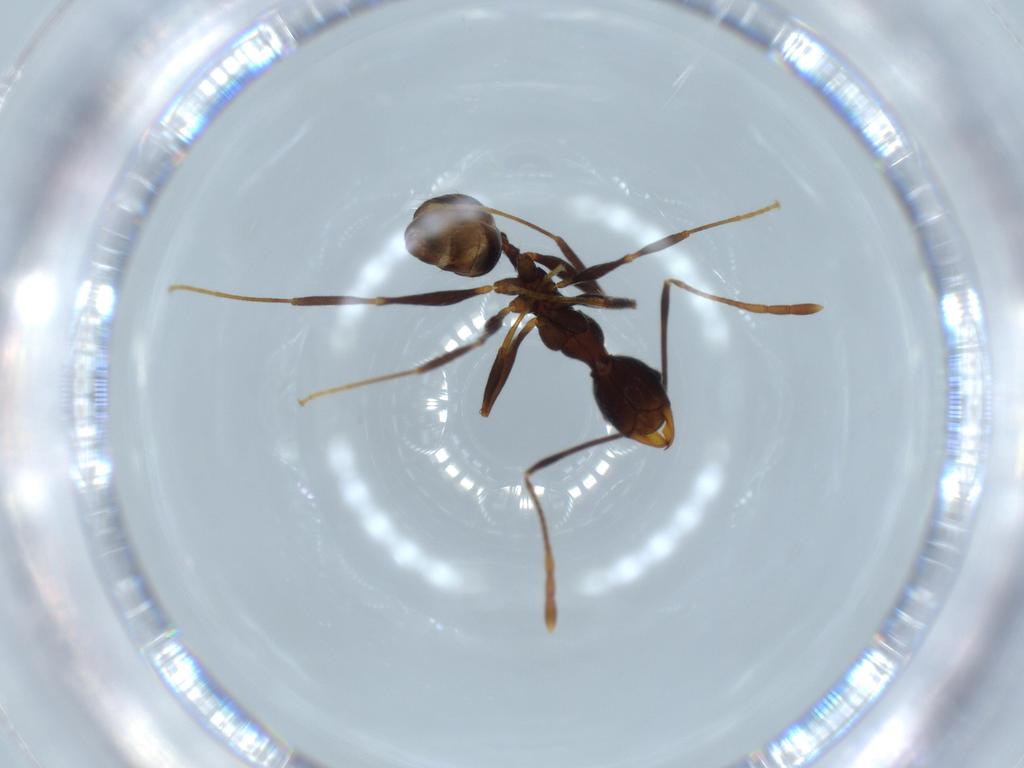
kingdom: Animalia
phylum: Arthropoda
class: Insecta
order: Hymenoptera
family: Formicidae
